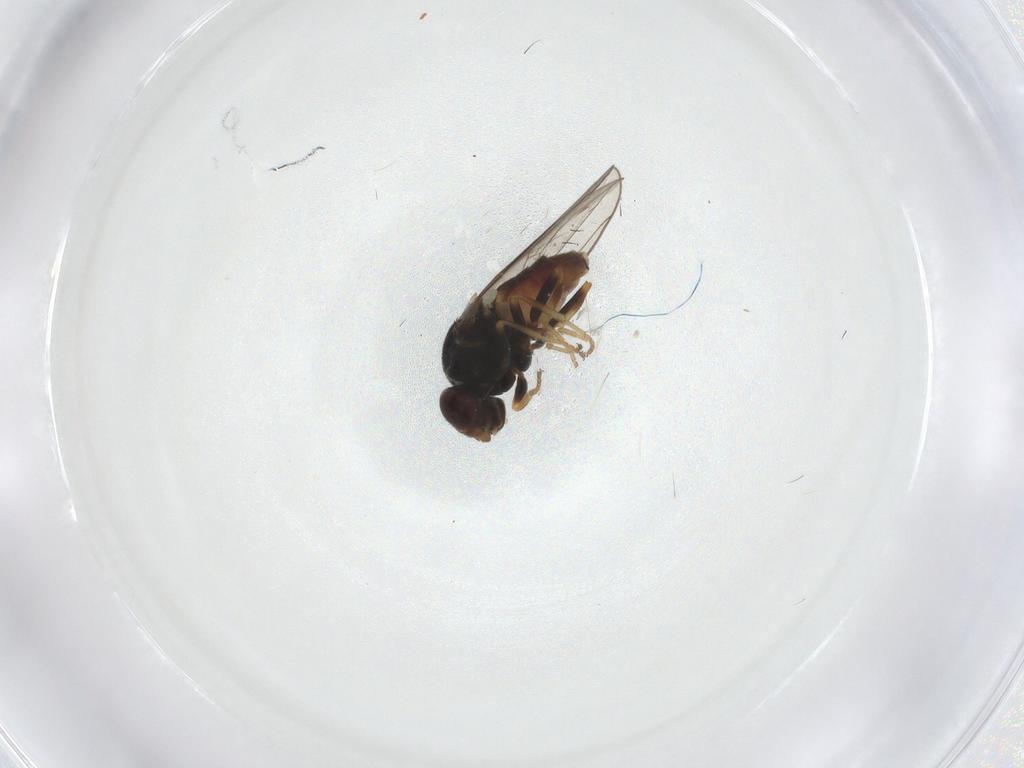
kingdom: Animalia
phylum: Arthropoda
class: Insecta
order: Diptera
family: Chloropidae
